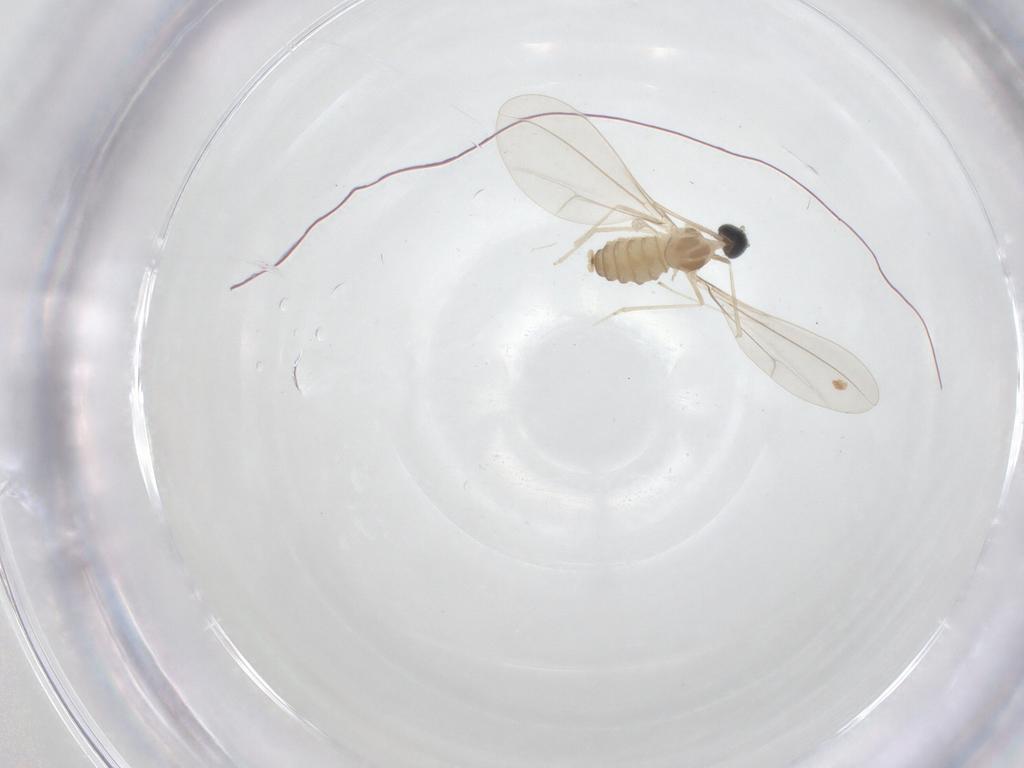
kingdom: Animalia
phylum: Arthropoda
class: Insecta
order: Diptera
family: Cecidomyiidae
